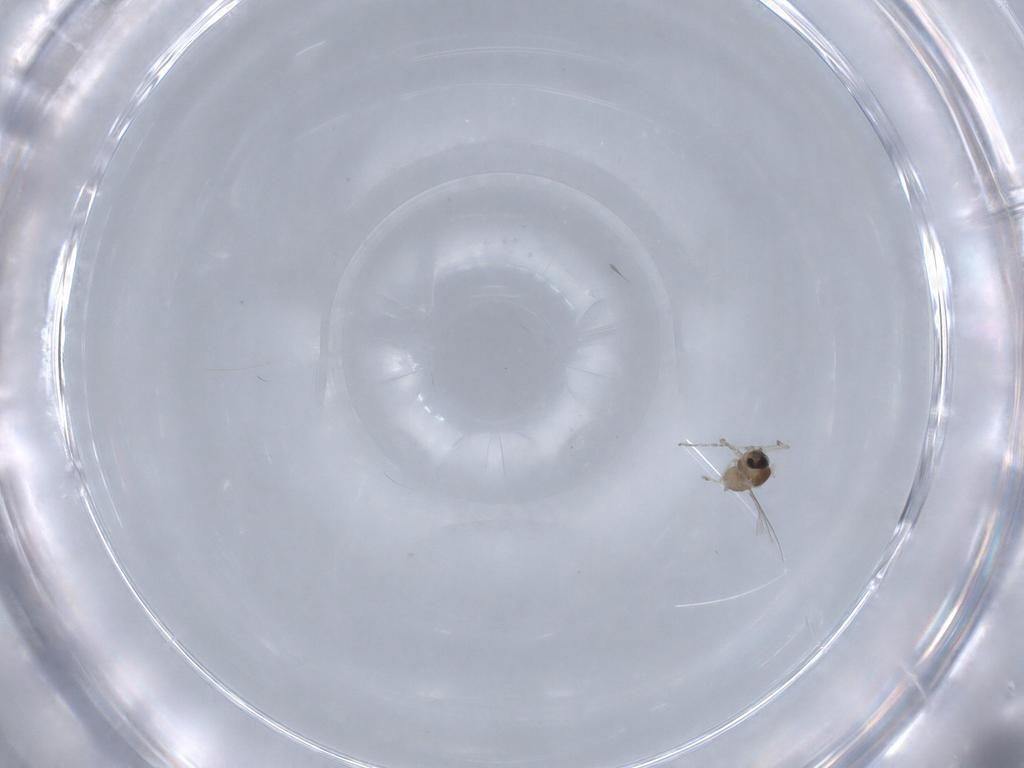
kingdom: Animalia
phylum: Arthropoda
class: Insecta
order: Diptera
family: Cecidomyiidae
